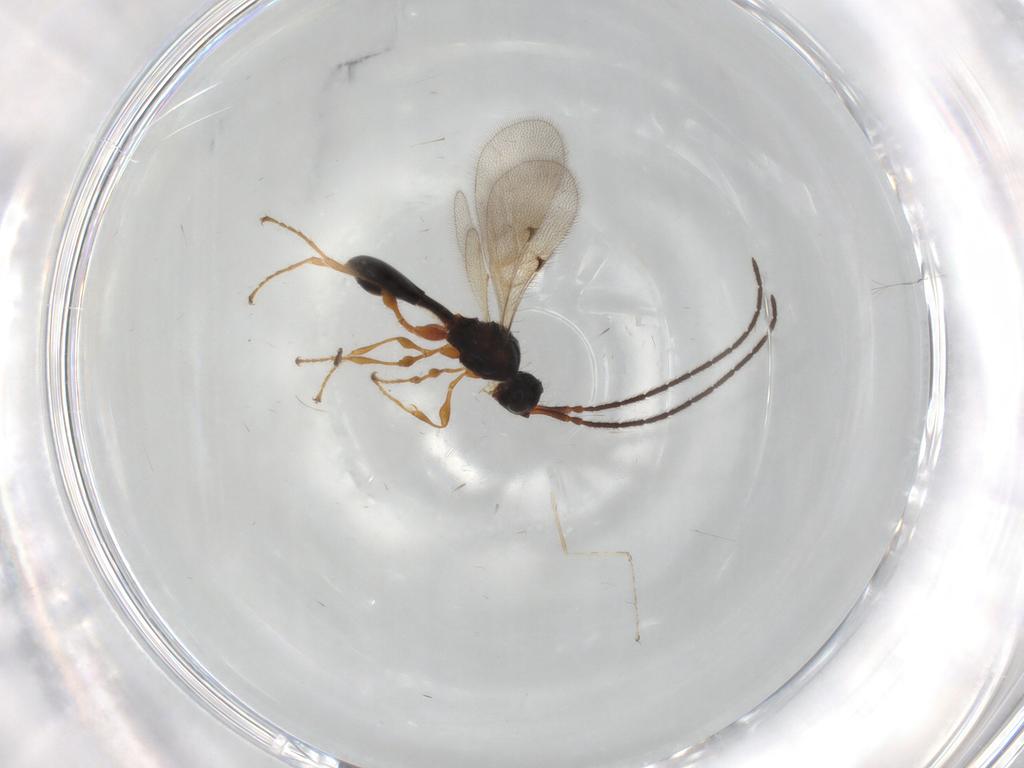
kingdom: Animalia
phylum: Arthropoda
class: Insecta
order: Hymenoptera
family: Diapriidae
